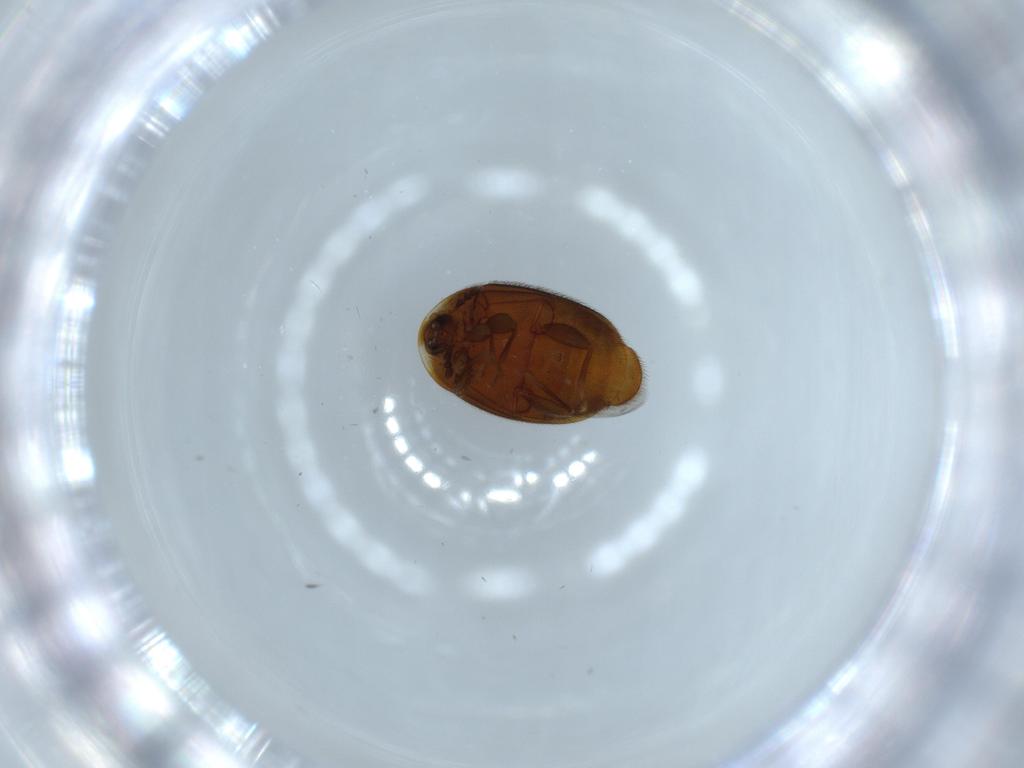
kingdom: Animalia
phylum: Arthropoda
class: Insecta
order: Coleoptera
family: Corylophidae
